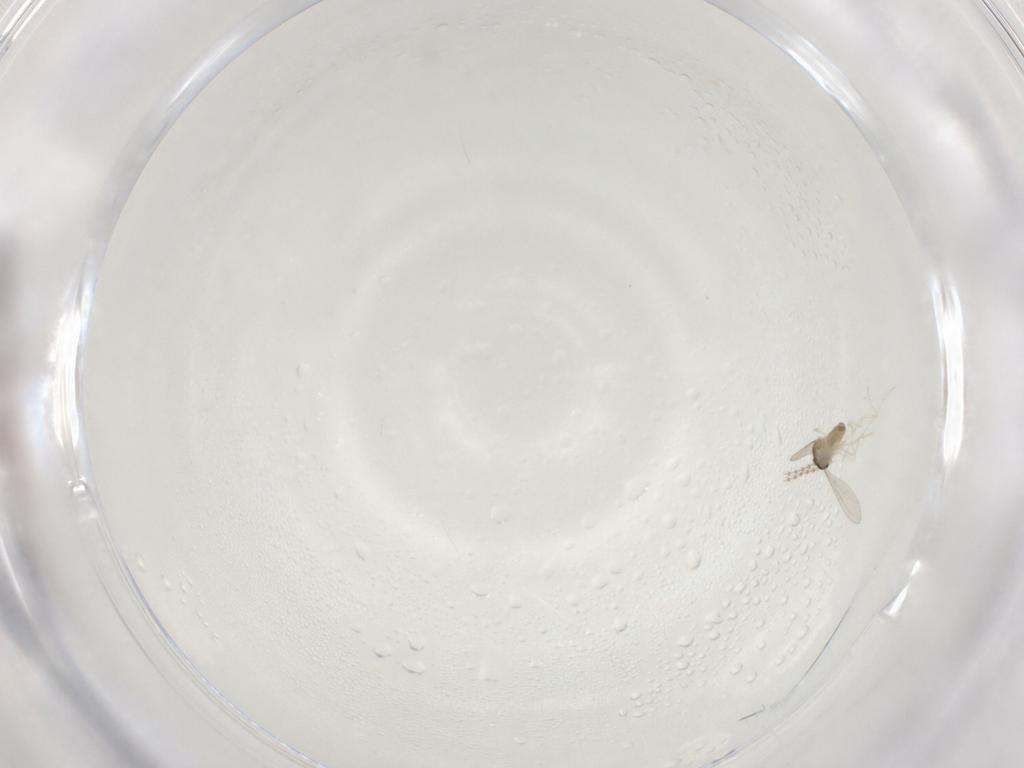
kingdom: Animalia
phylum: Arthropoda
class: Insecta
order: Diptera
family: Cecidomyiidae
